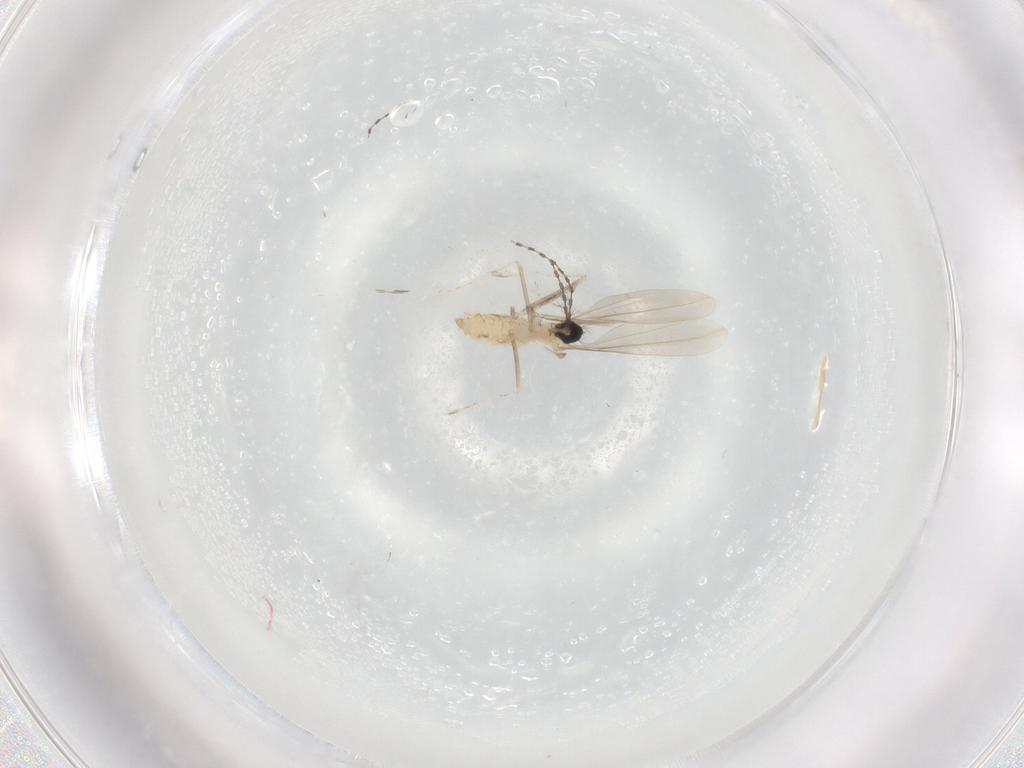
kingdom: Animalia
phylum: Arthropoda
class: Insecta
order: Diptera
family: Cecidomyiidae
